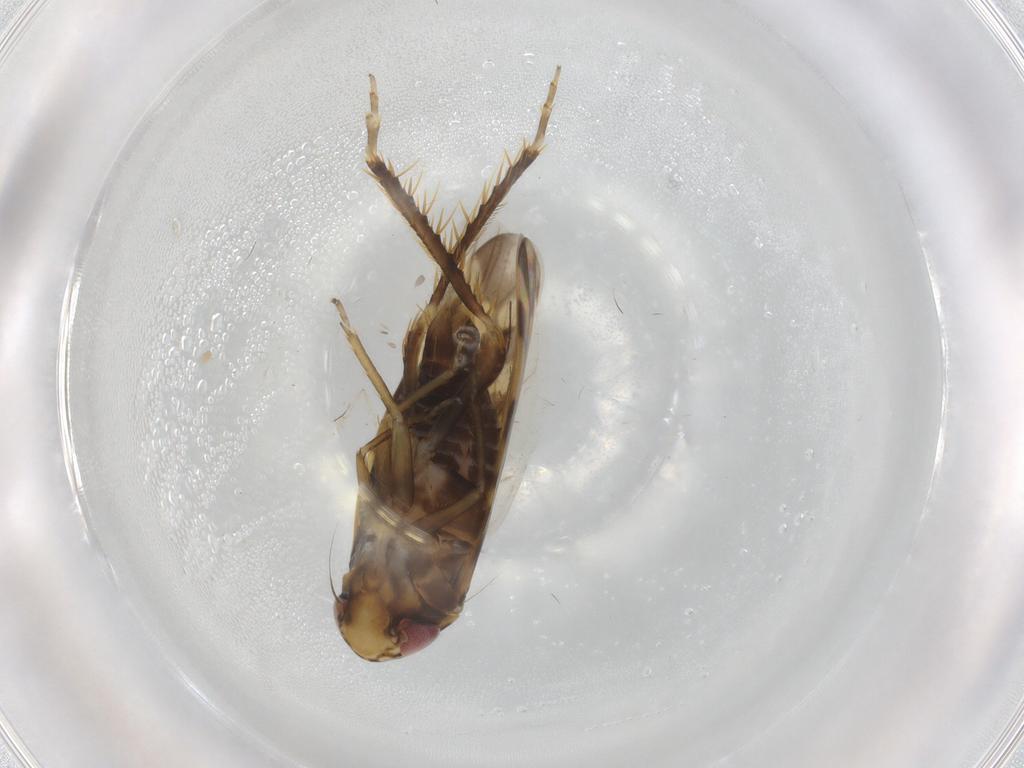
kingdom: Animalia
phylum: Arthropoda
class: Insecta
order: Hemiptera
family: Cicadellidae
